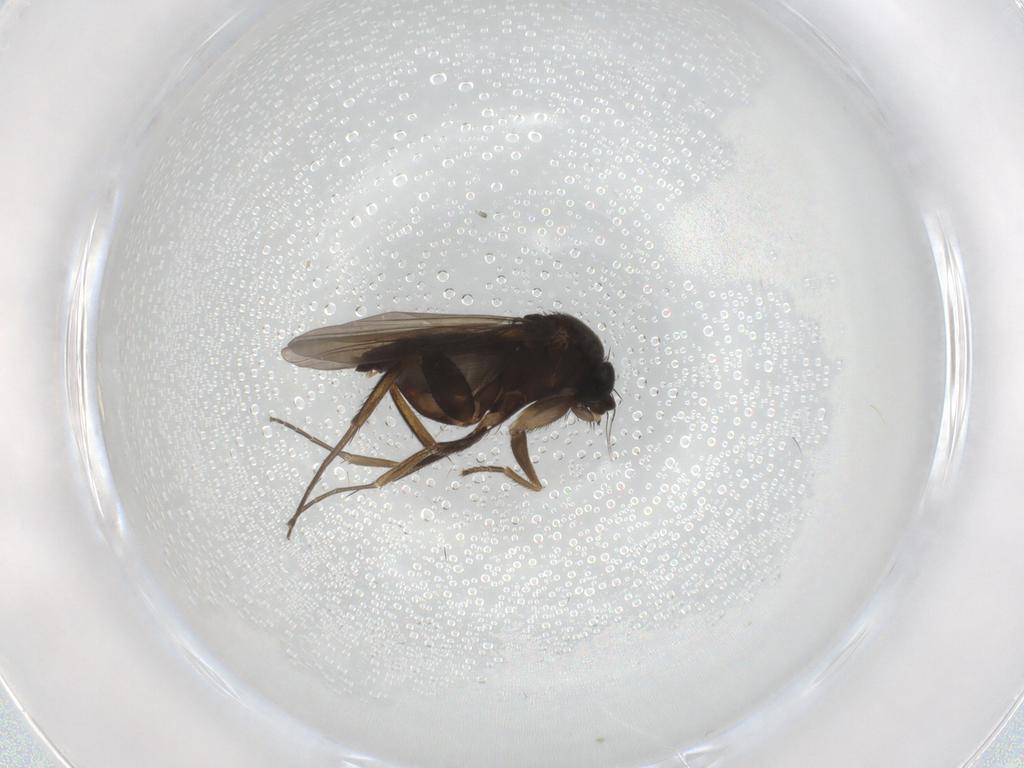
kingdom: Animalia
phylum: Arthropoda
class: Insecta
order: Diptera
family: Phoridae
